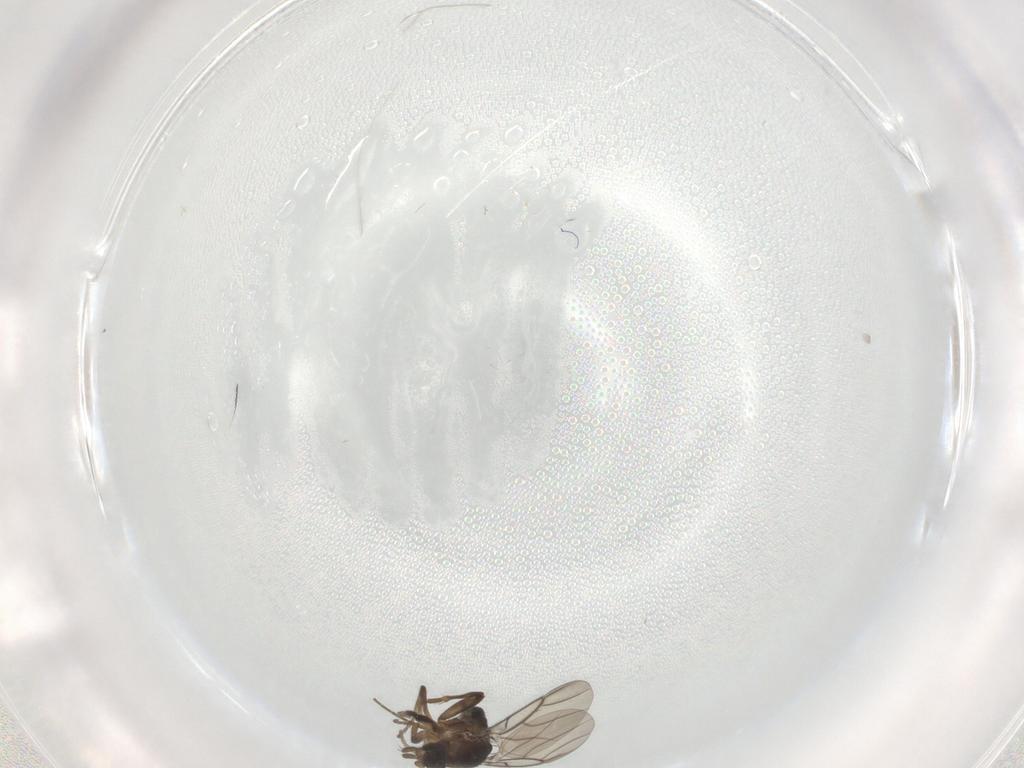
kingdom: Animalia
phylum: Arthropoda
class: Insecta
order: Diptera
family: Phoridae
